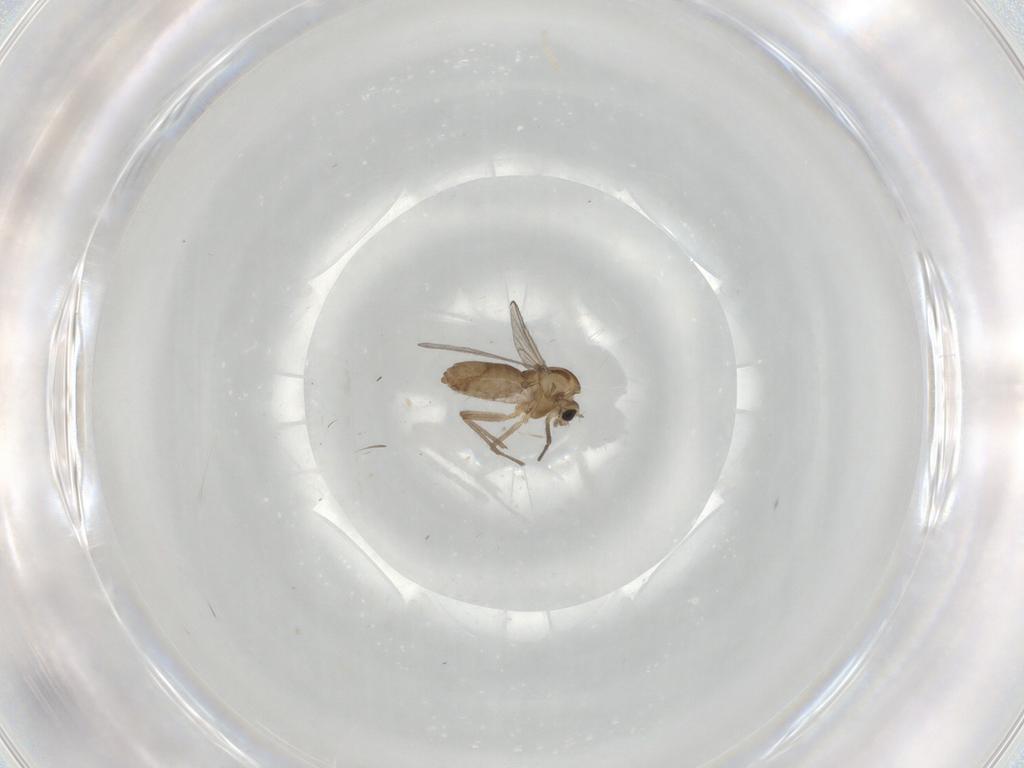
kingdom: Animalia
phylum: Arthropoda
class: Insecta
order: Diptera
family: Chironomidae
